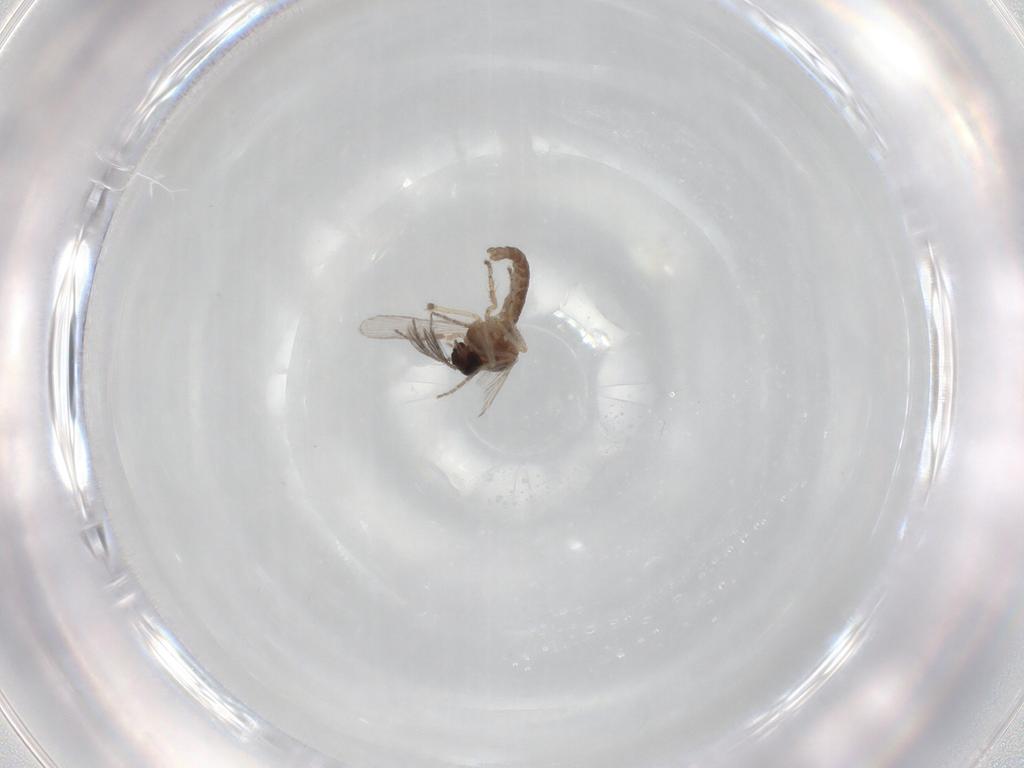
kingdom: Animalia
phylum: Arthropoda
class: Insecta
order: Diptera
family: Ceratopogonidae
